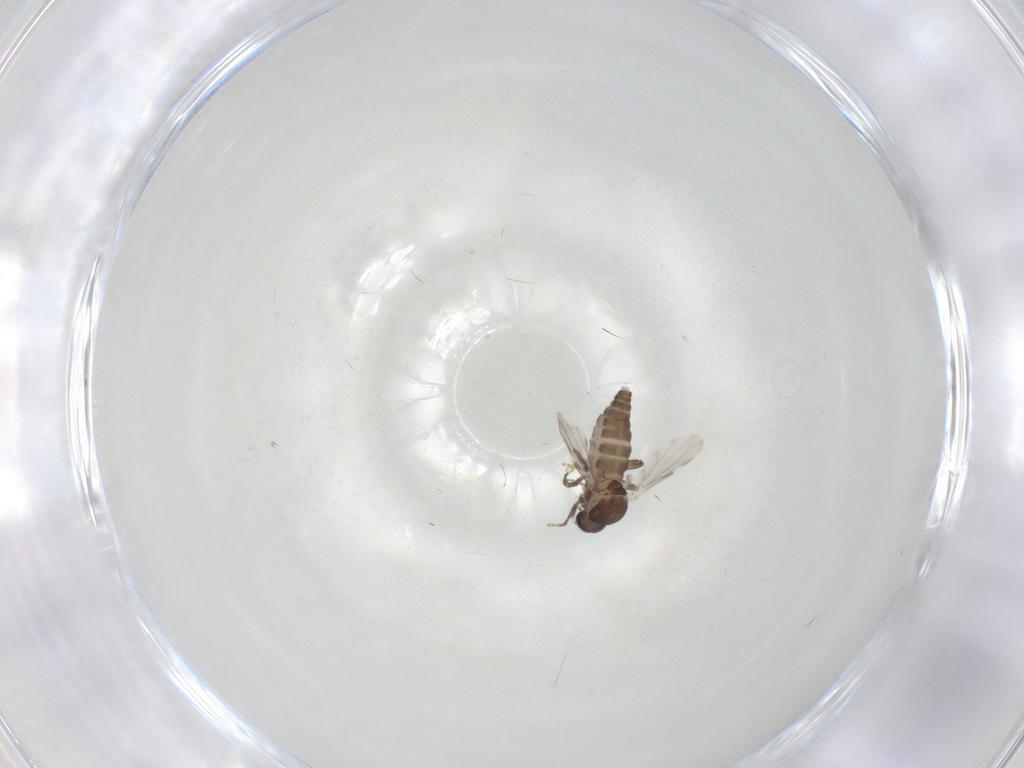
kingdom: Animalia
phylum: Arthropoda
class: Insecta
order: Diptera
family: Ceratopogonidae
